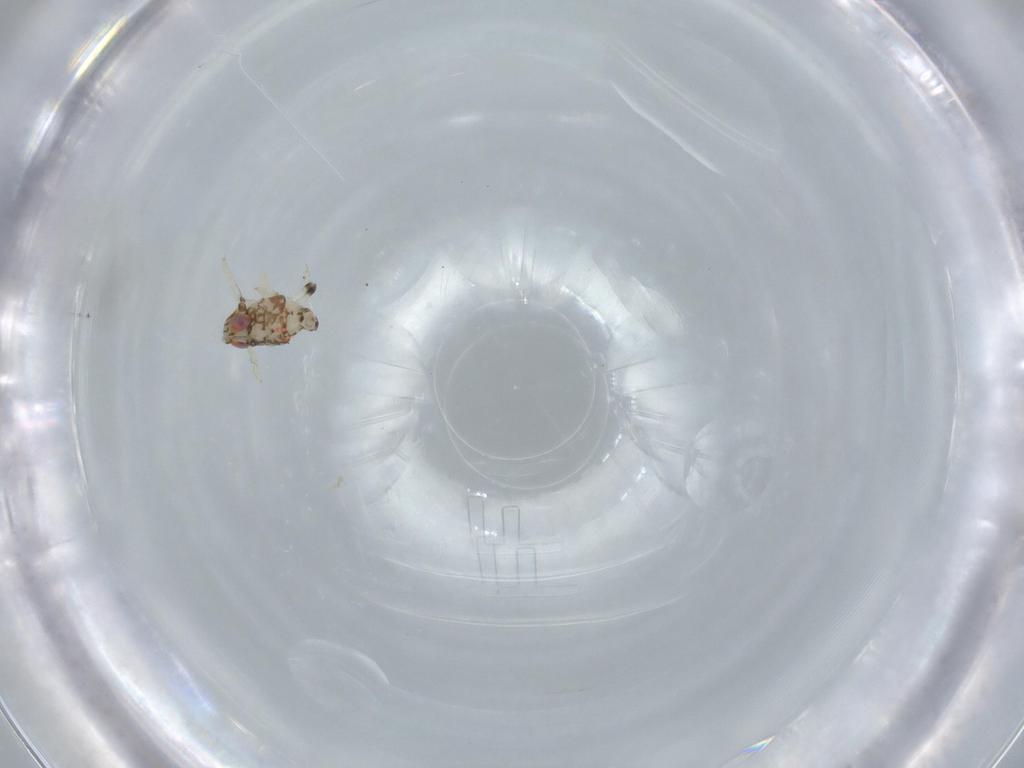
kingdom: Animalia
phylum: Arthropoda
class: Insecta
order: Hemiptera
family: Nogodinidae
